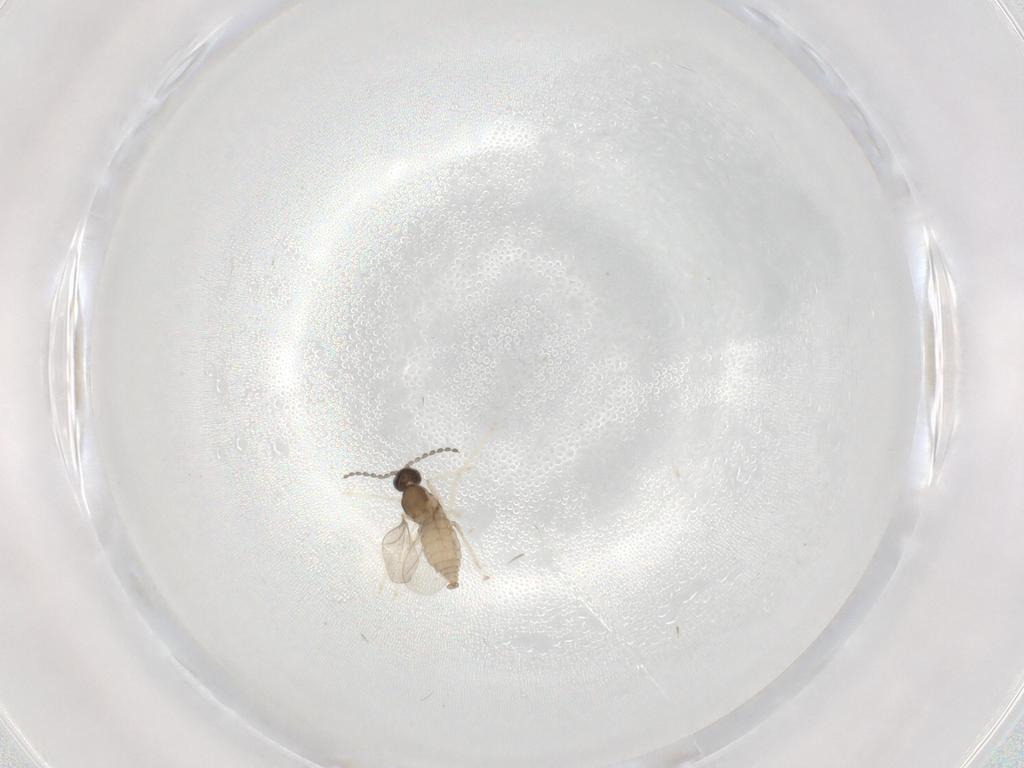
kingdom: Animalia
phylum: Arthropoda
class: Insecta
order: Diptera
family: Cecidomyiidae
